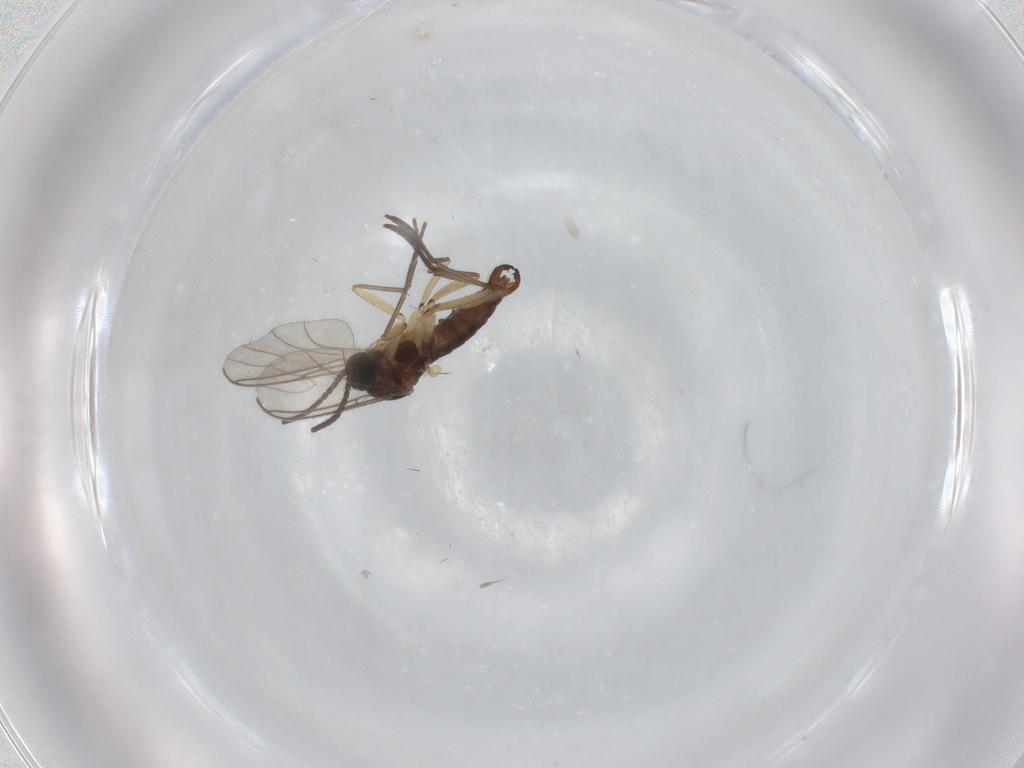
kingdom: Animalia
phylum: Arthropoda
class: Insecta
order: Diptera
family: Sciaridae
